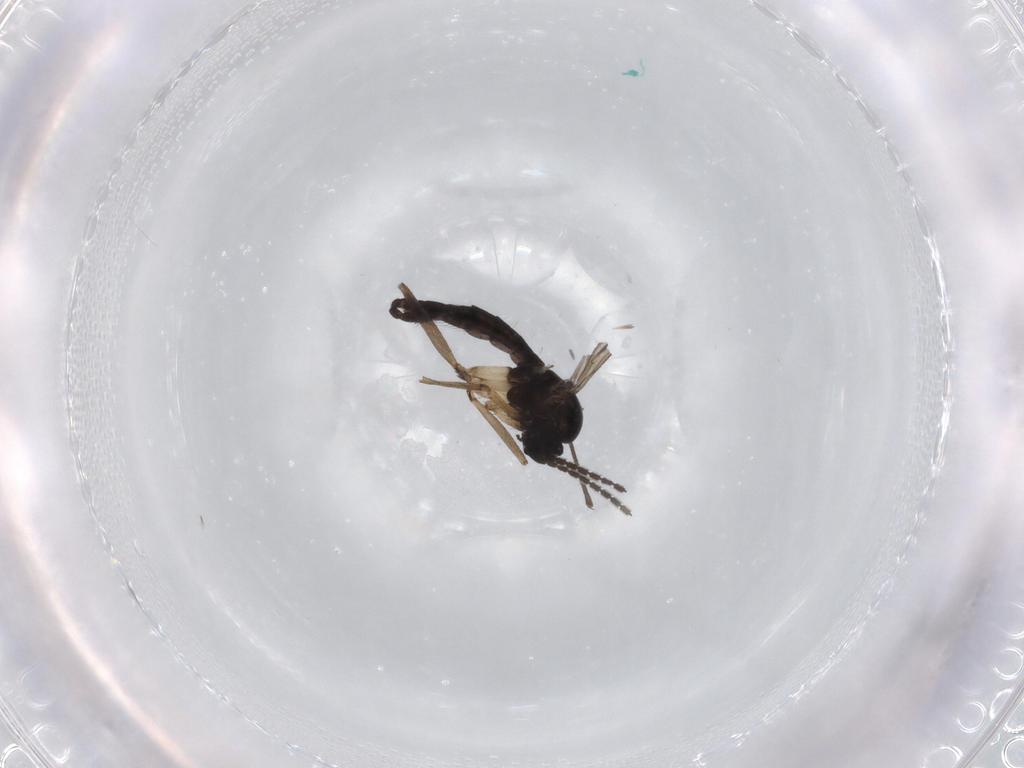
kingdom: Animalia
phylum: Arthropoda
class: Insecta
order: Diptera
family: Sciaridae
